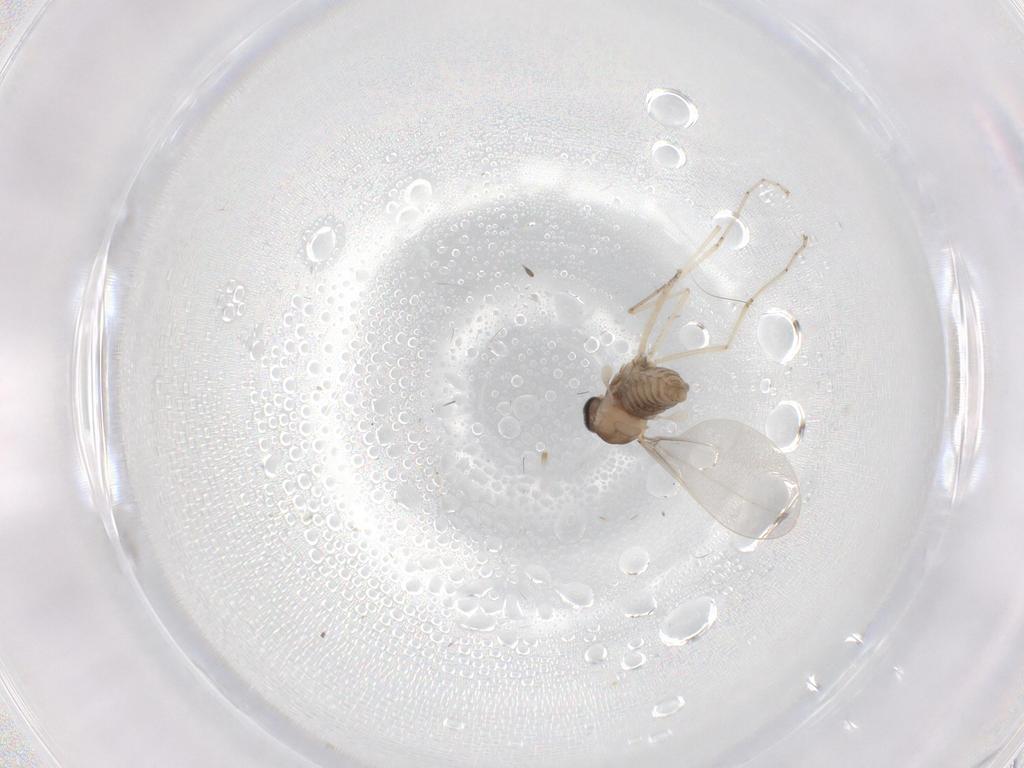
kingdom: Animalia
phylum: Arthropoda
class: Insecta
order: Diptera
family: Cecidomyiidae
